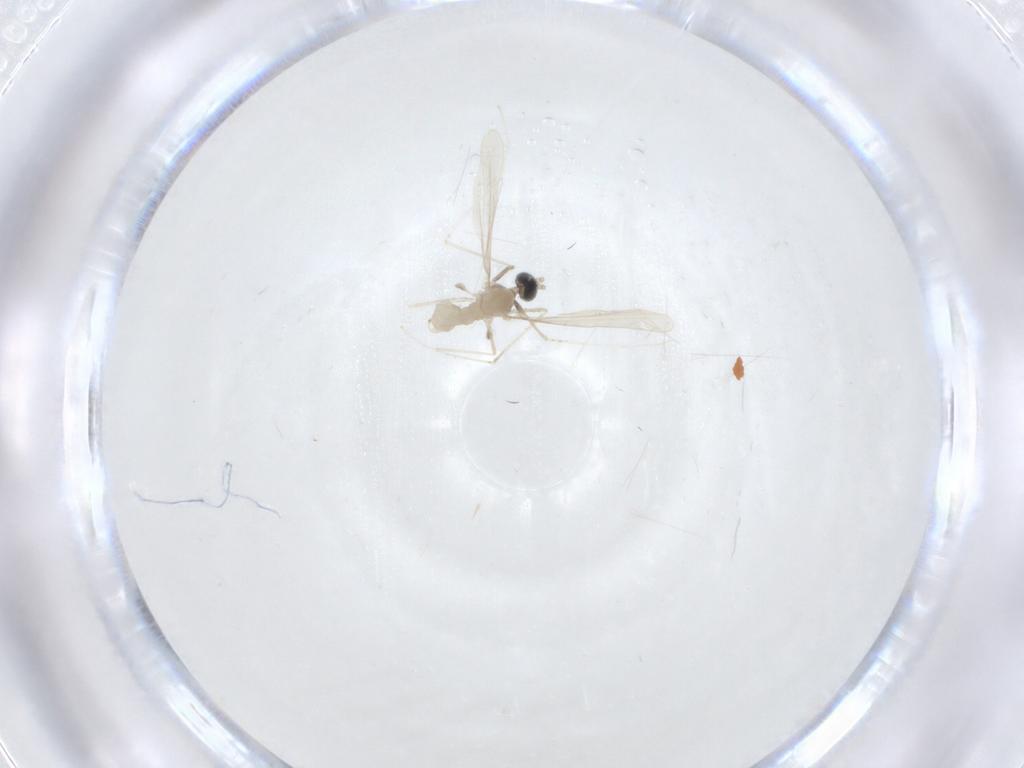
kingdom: Animalia
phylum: Arthropoda
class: Insecta
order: Diptera
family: Cecidomyiidae
